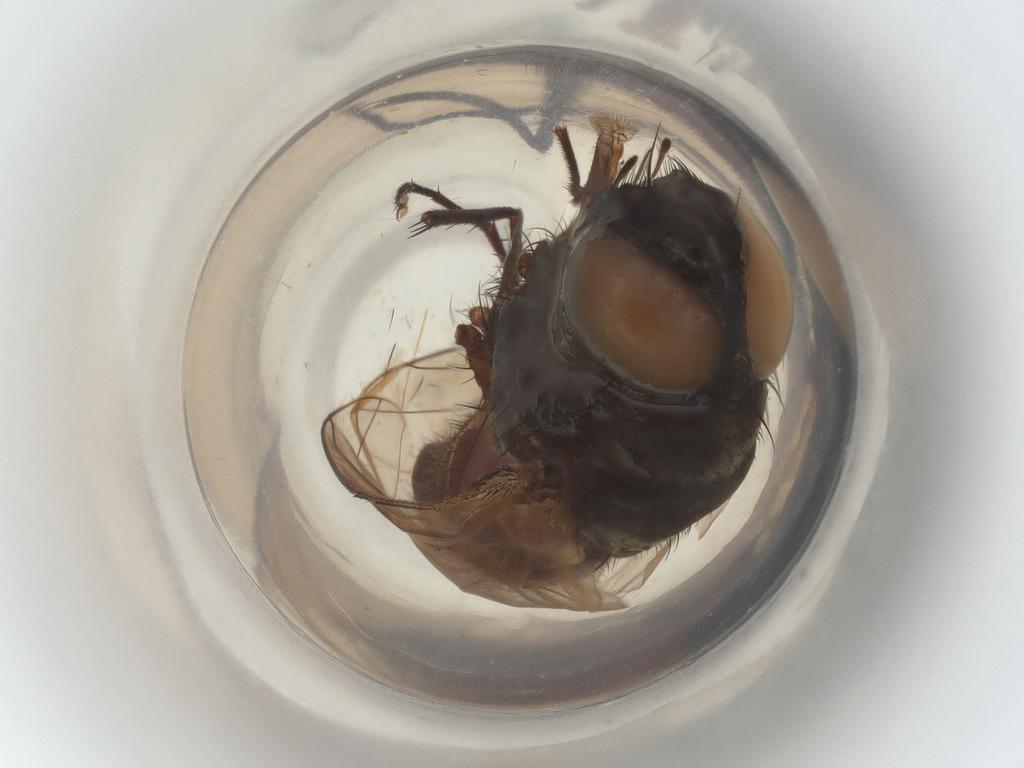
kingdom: Animalia
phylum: Arthropoda
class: Insecta
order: Diptera
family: Muscidae
